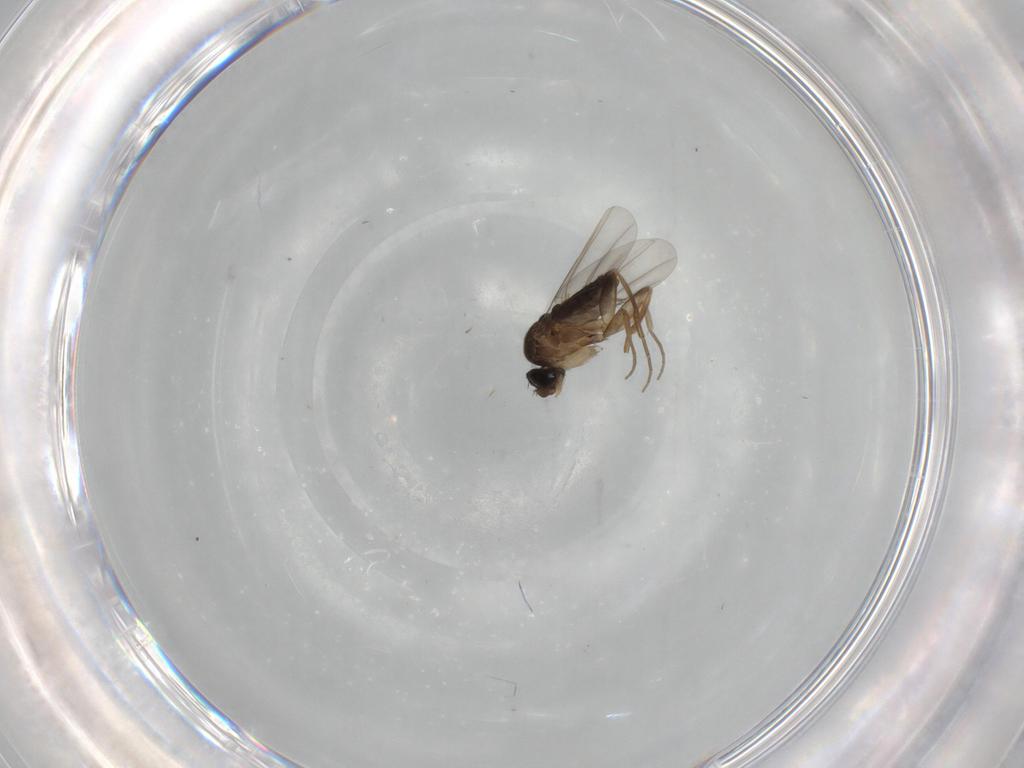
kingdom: Animalia
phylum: Arthropoda
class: Insecta
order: Diptera
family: Phoridae
